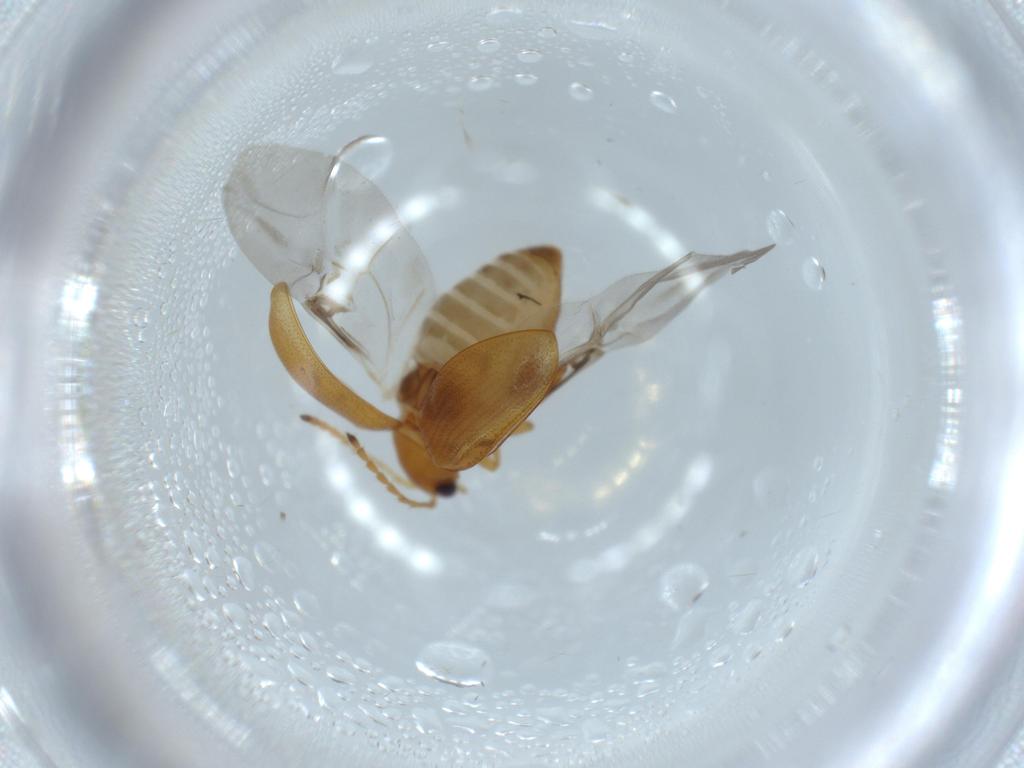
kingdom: Animalia
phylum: Arthropoda
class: Insecta
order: Coleoptera
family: Chrysomelidae
